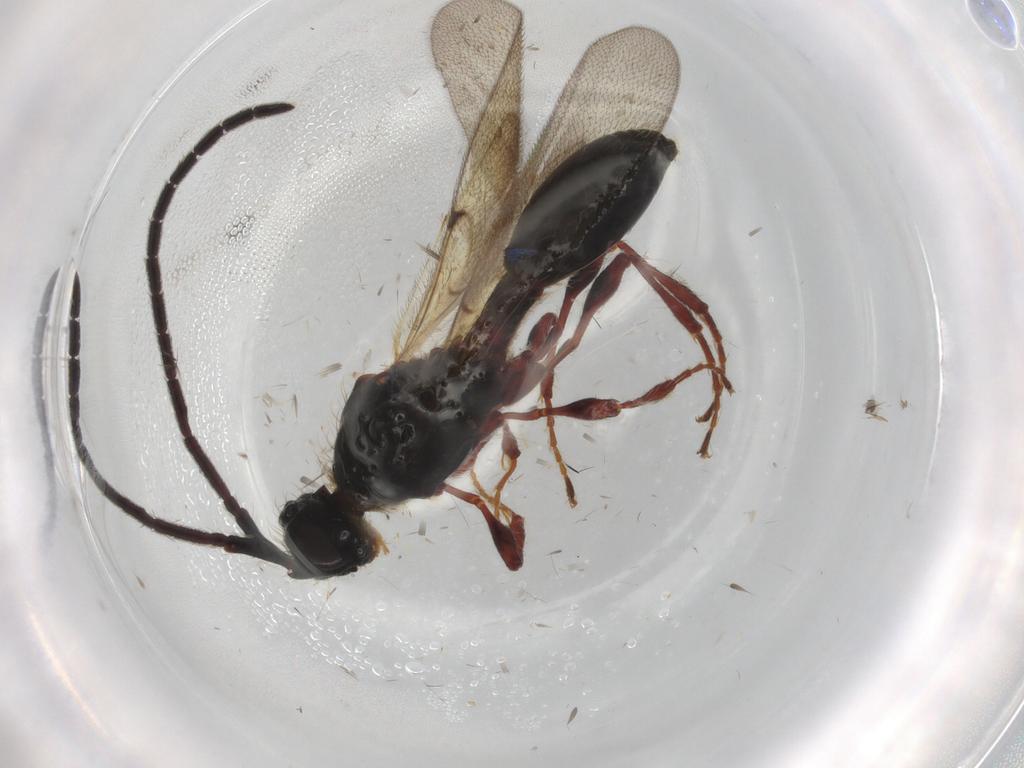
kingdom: Animalia
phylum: Arthropoda
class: Insecta
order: Hymenoptera
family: Diapriidae
